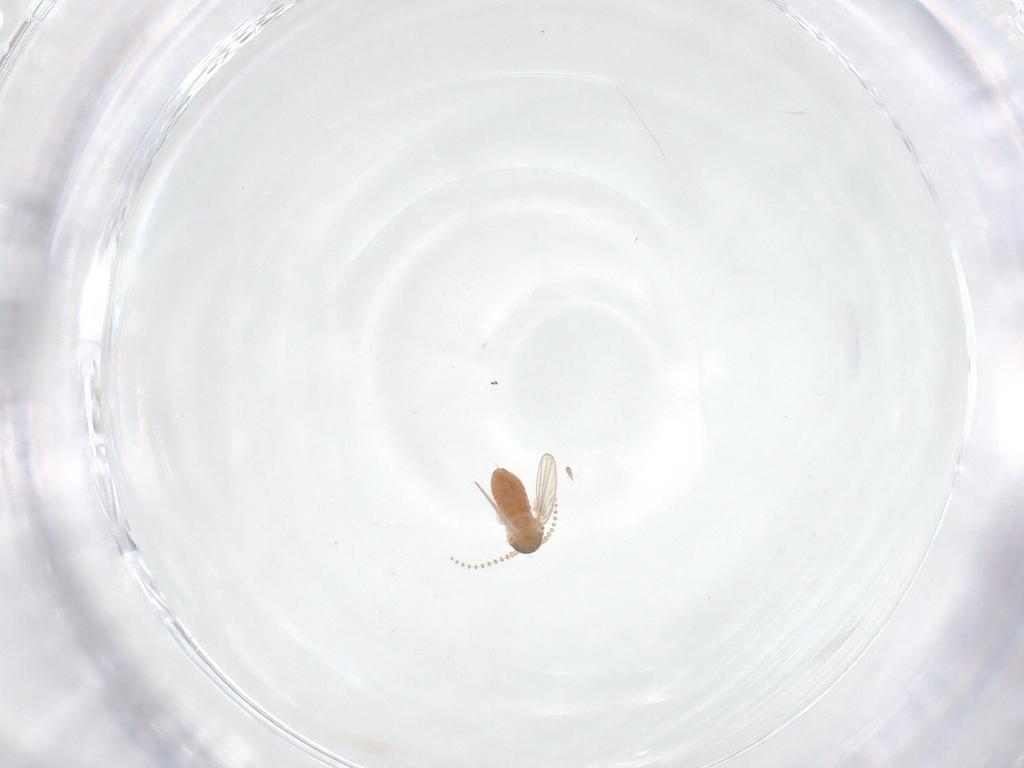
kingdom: Animalia
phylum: Arthropoda
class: Insecta
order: Diptera
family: Psychodidae
